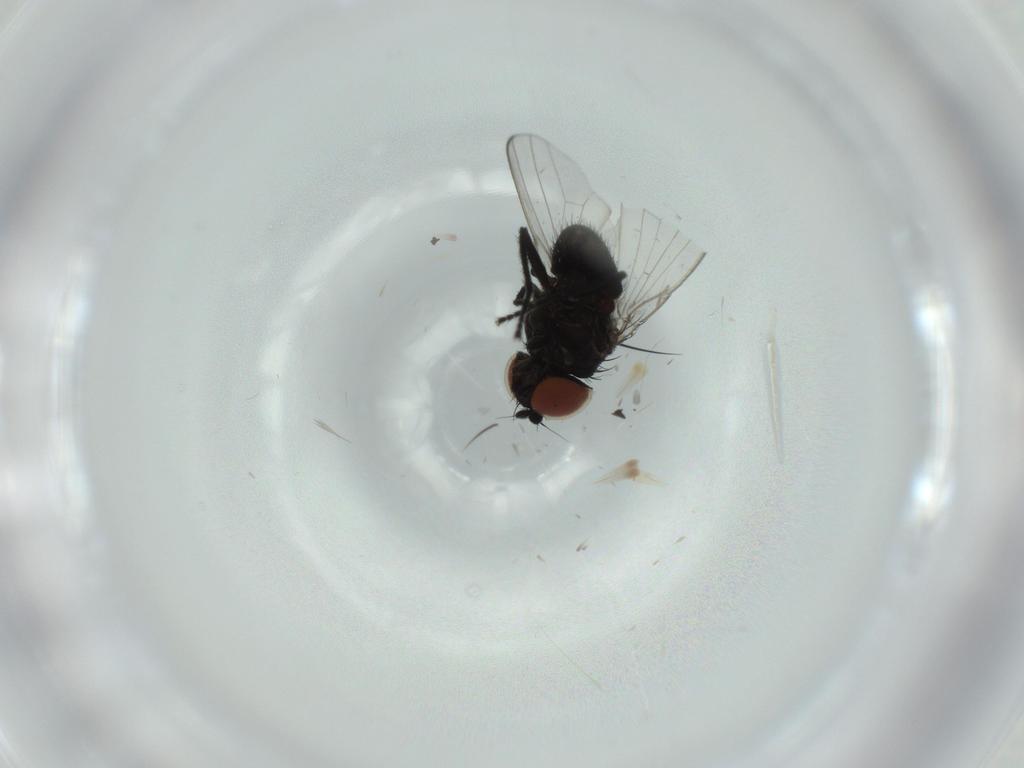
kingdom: Animalia
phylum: Arthropoda
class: Insecta
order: Diptera
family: Milichiidae
